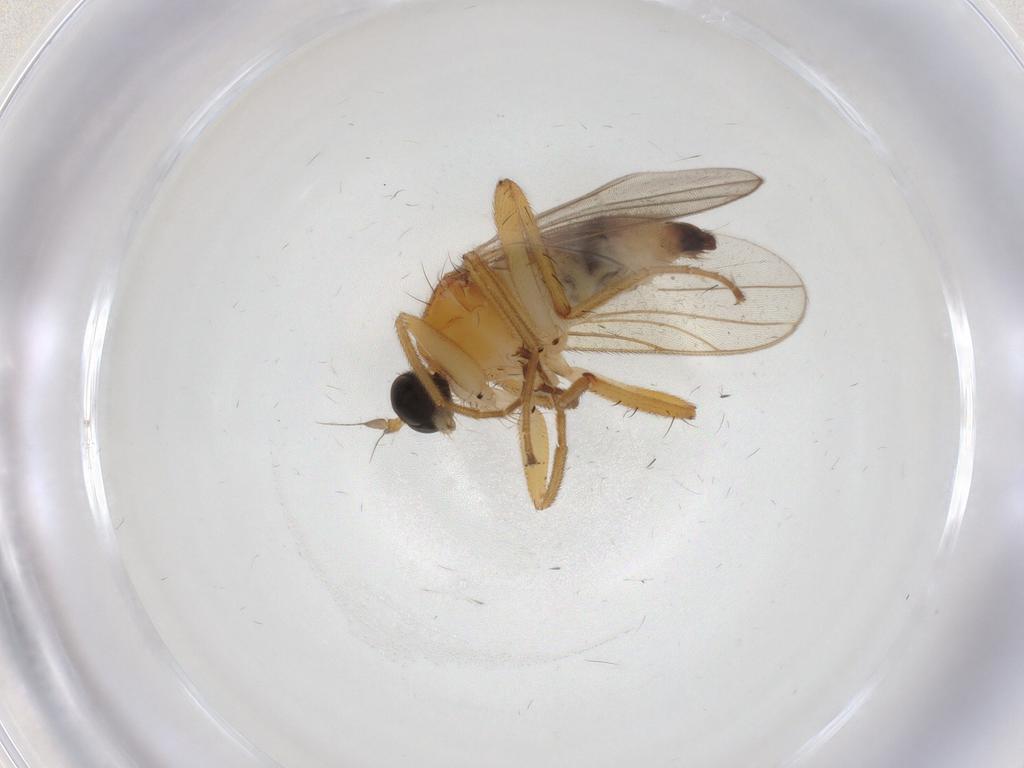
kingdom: Animalia
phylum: Arthropoda
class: Insecta
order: Diptera
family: Hybotidae
